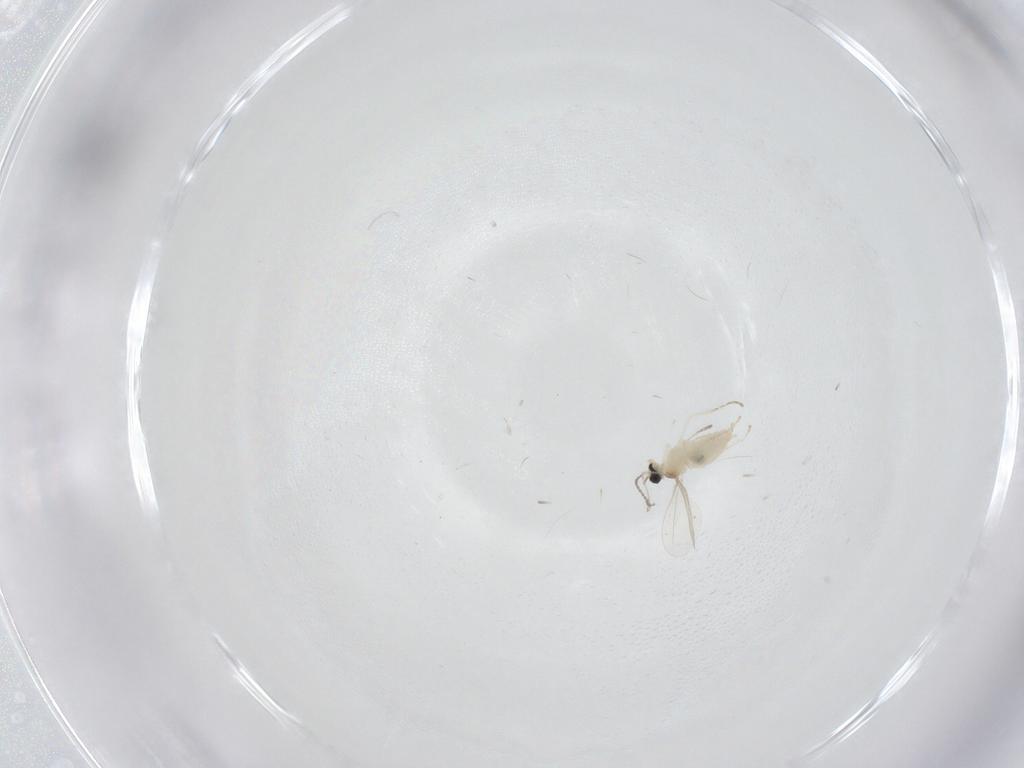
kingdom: Animalia
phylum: Arthropoda
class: Insecta
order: Diptera
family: Cecidomyiidae
